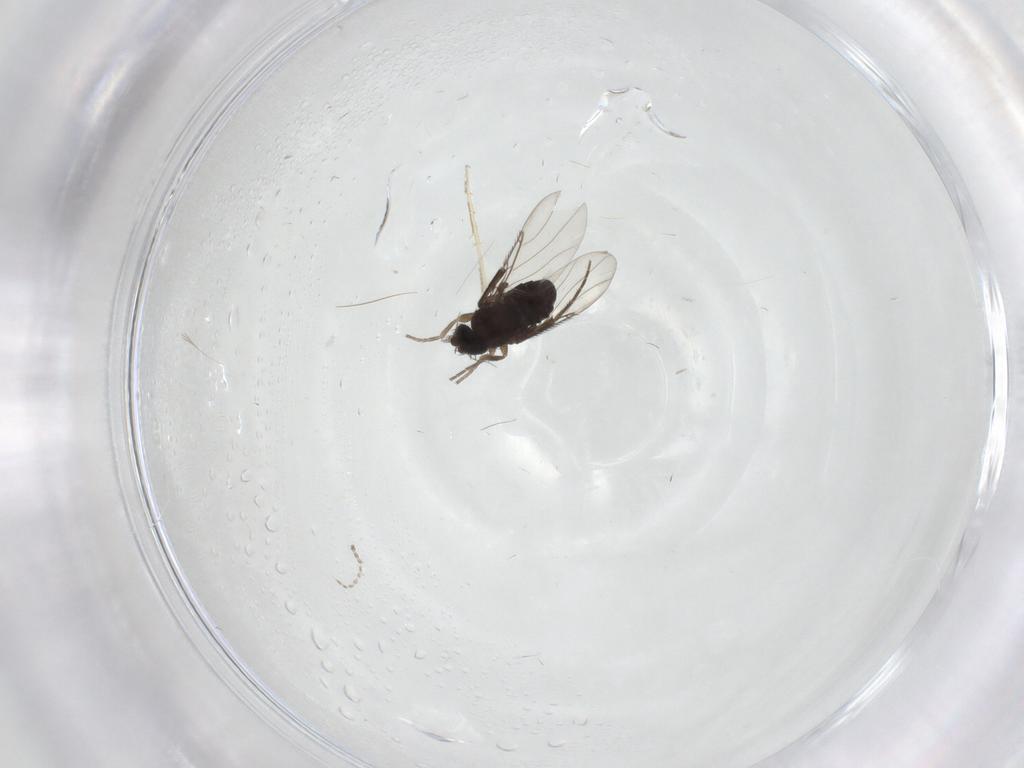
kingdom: Animalia
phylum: Arthropoda
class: Insecta
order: Diptera
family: Phoridae
